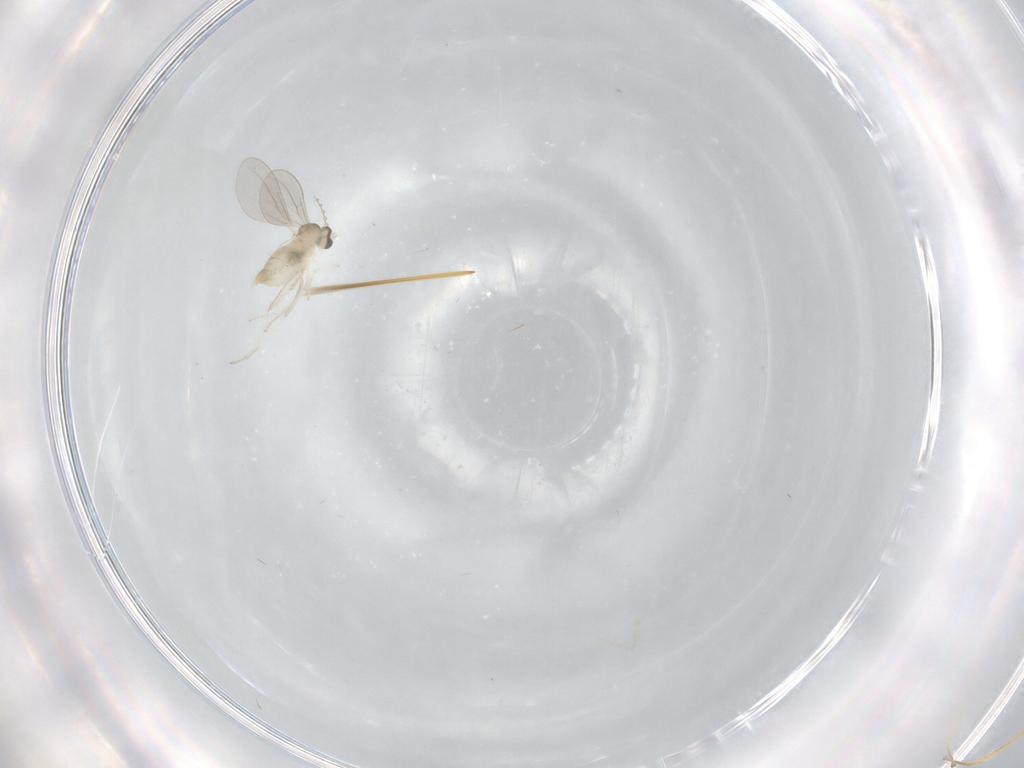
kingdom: Animalia
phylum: Arthropoda
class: Insecta
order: Diptera
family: Cecidomyiidae
